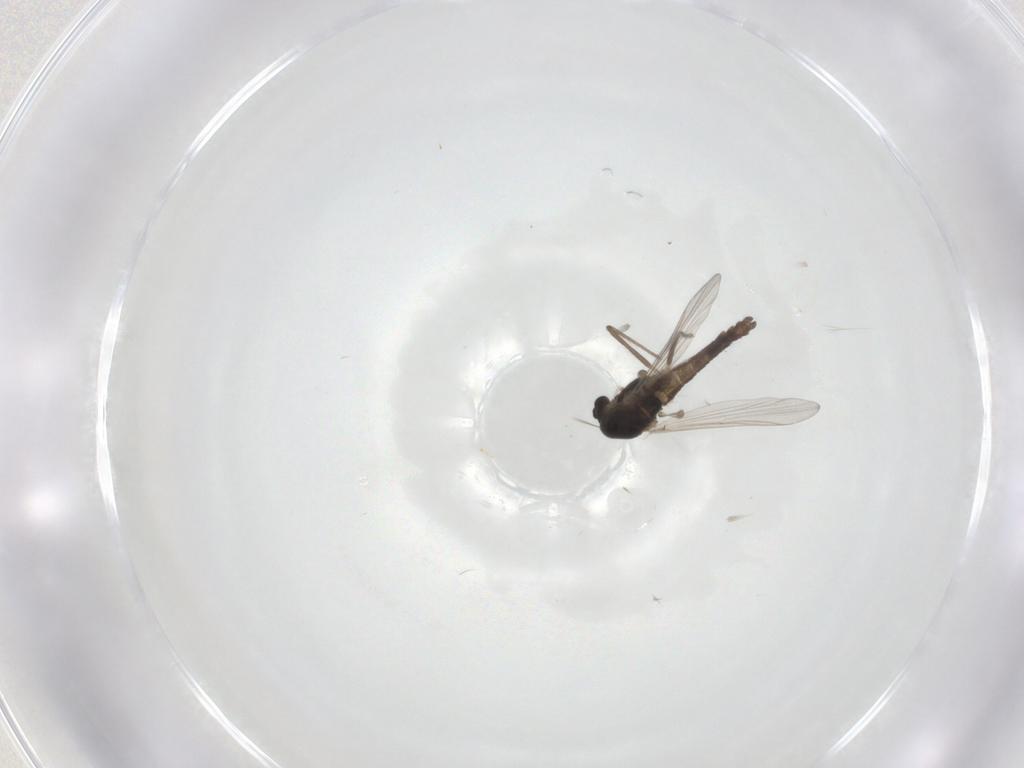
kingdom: Animalia
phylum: Arthropoda
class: Insecta
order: Diptera
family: Chironomidae
